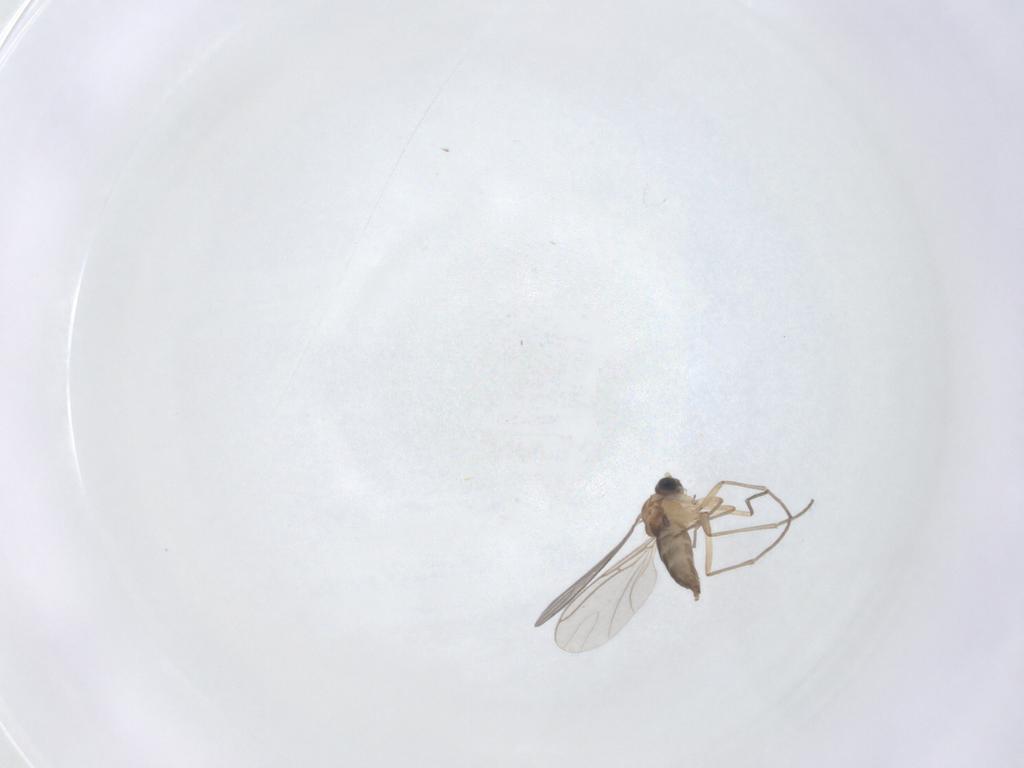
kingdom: Animalia
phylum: Arthropoda
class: Insecta
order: Diptera
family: Sciaridae
